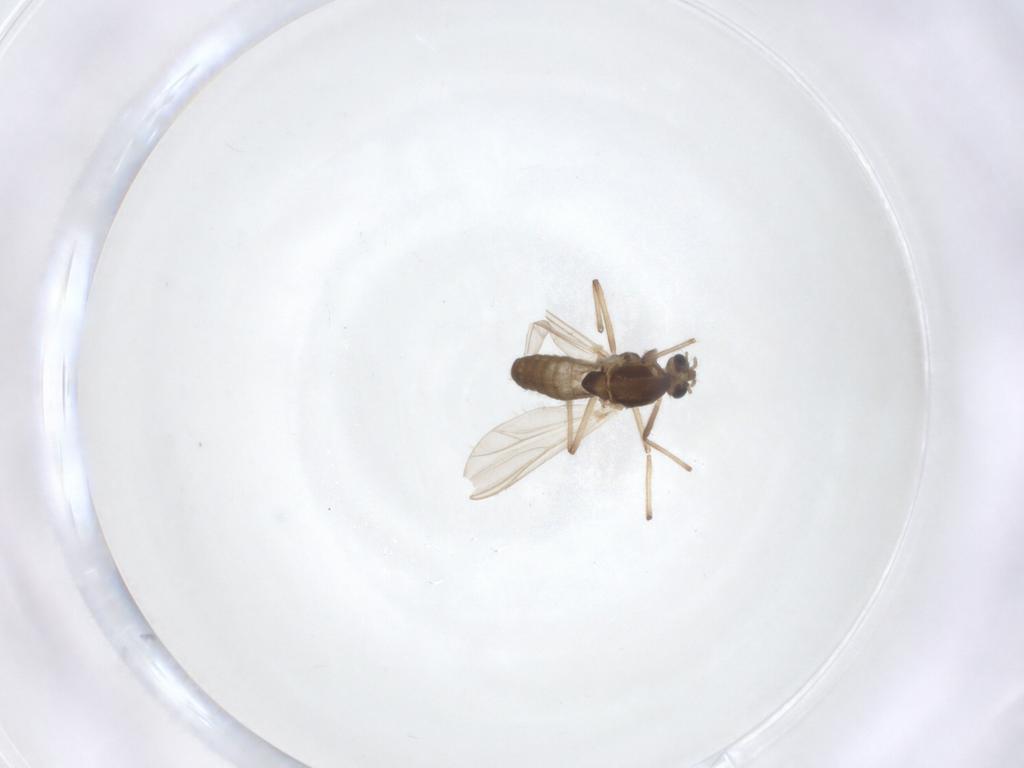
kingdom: Animalia
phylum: Arthropoda
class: Insecta
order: Diptera
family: Chironomidae
